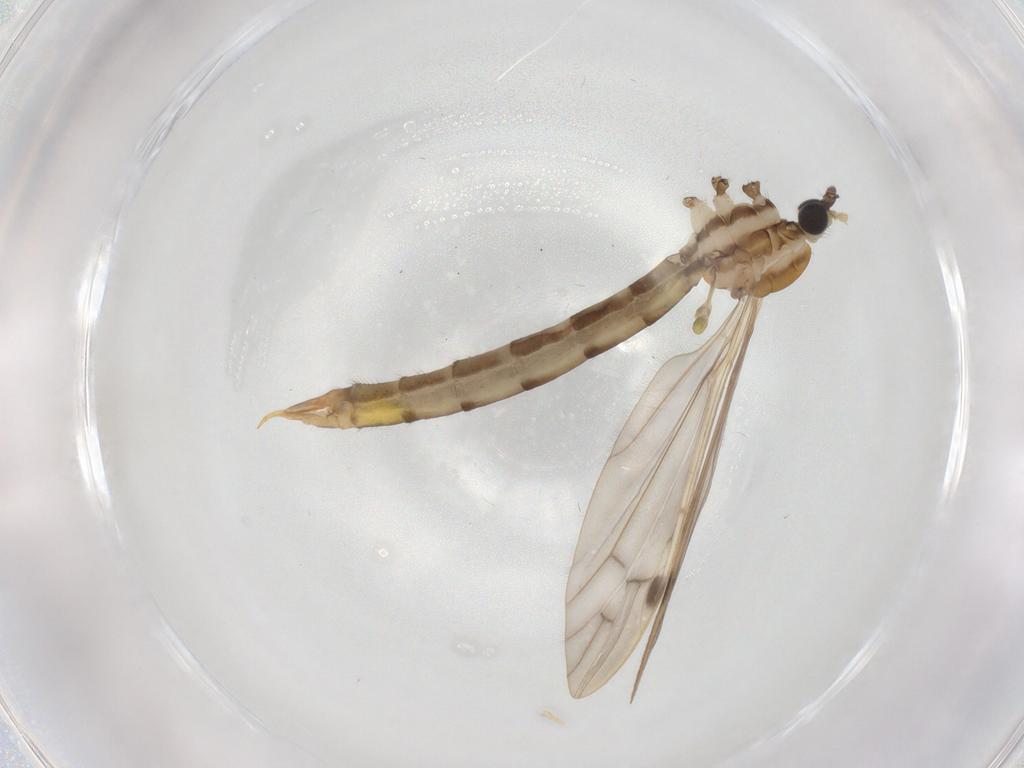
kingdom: Animalia
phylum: Arthropoda
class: Insecta
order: Diptera
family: Chironomidae
